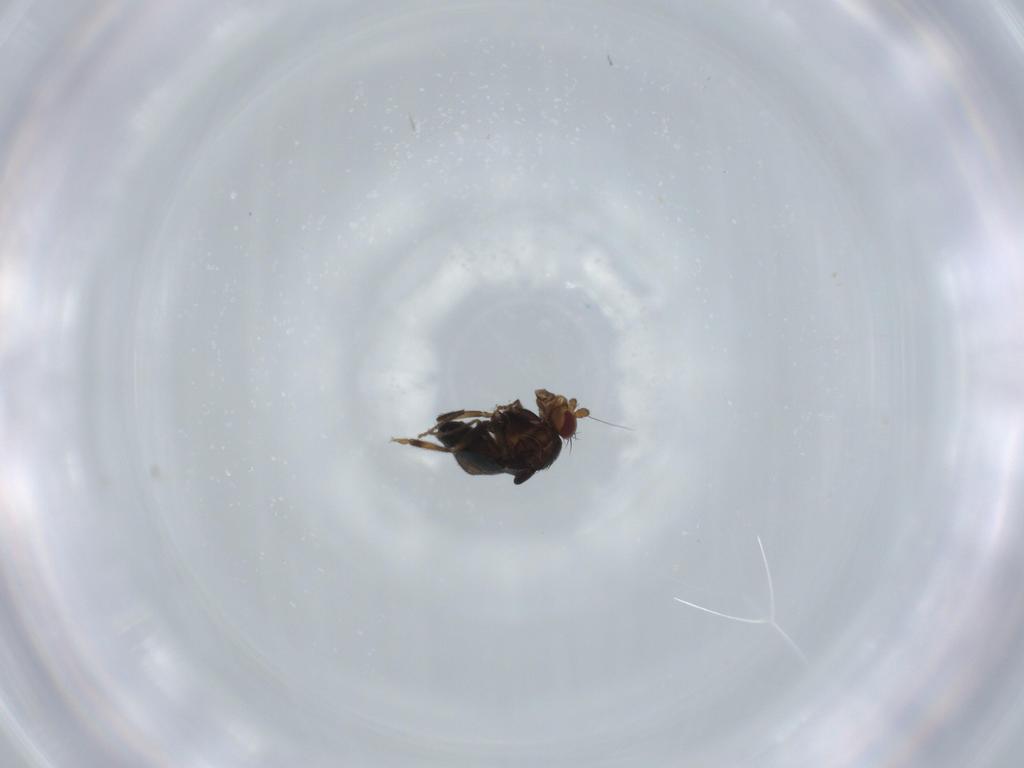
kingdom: Animalia
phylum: Arthropoda
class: Insecta
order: Diptera
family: Sphaeroceridae
